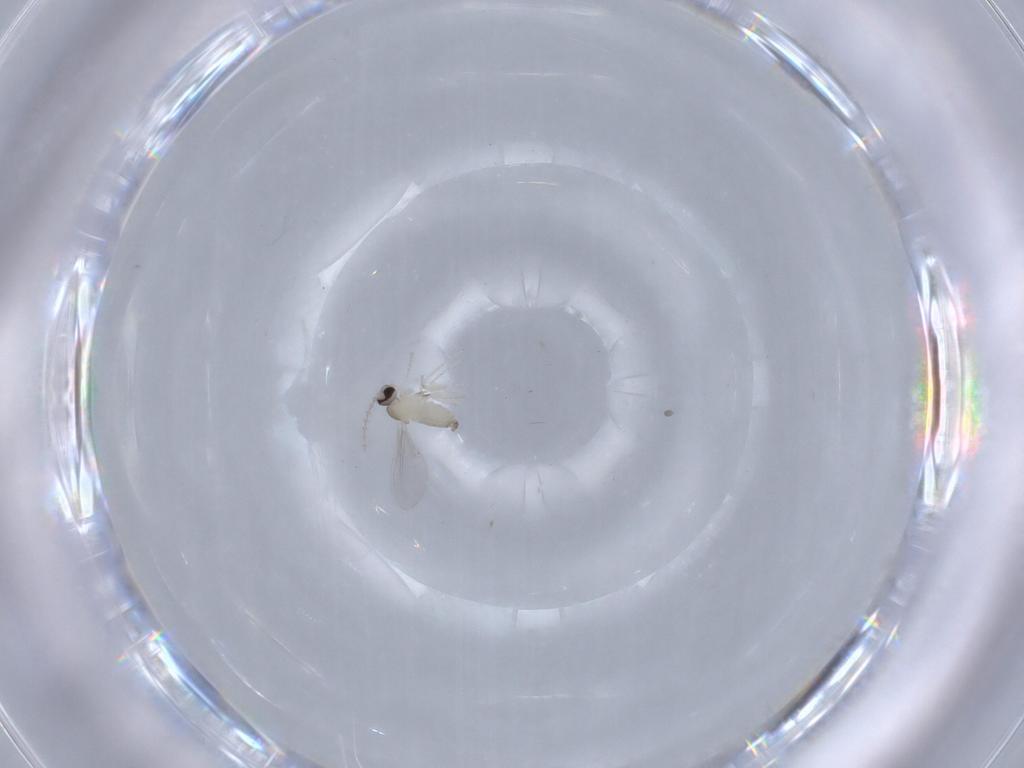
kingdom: Animalia
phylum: Arthropoda
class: Insecta
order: Diptera
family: Cecidomyiidae
